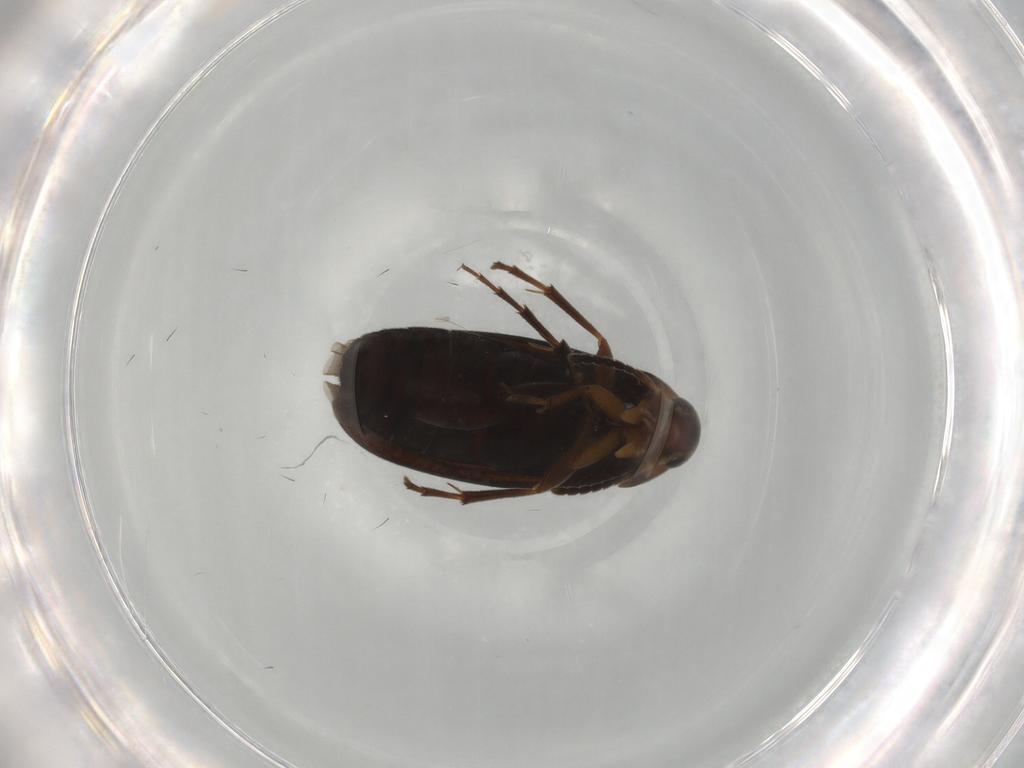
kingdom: Animalia
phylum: Arthropoda
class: Insecta
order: Coleoptera
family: Scraptiidae
